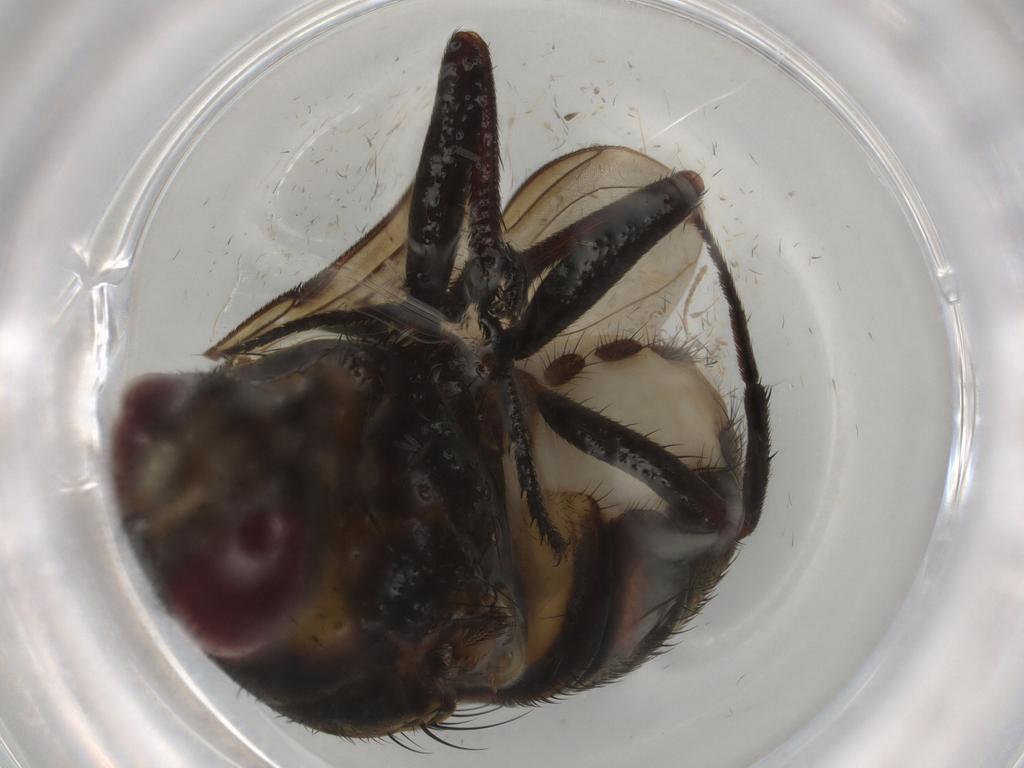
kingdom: Animalia
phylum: Arthropoda
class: Insecta
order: Diptera
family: Muscidae
